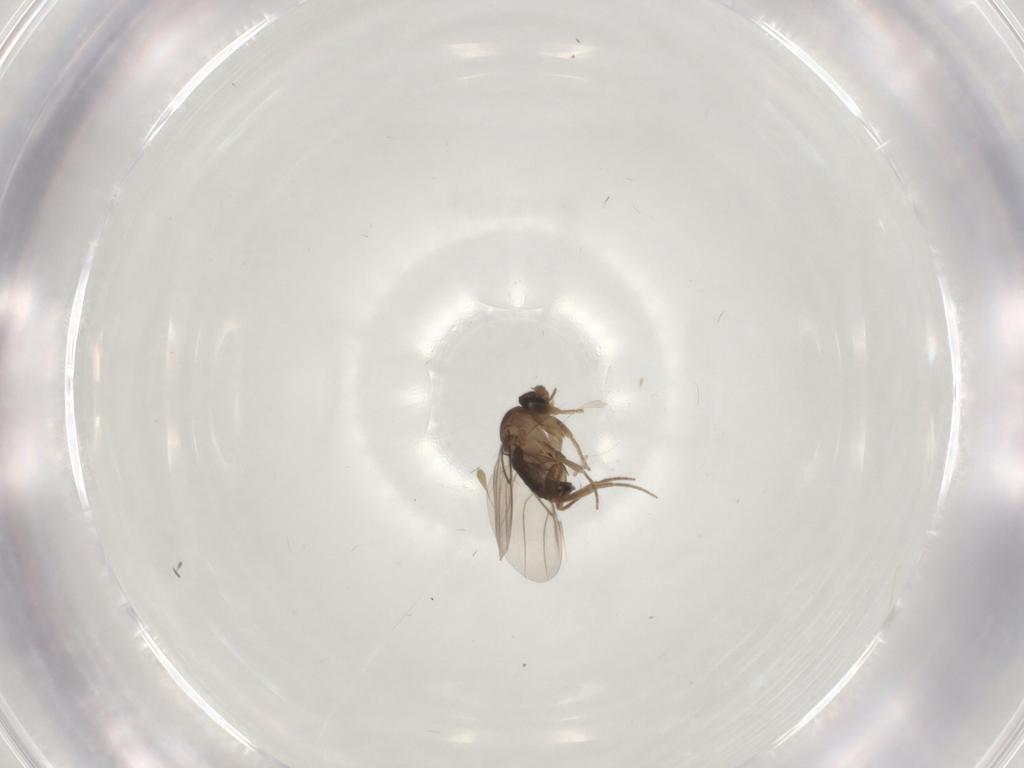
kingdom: Animalia
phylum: Arthropoda
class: Insecta
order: Diptera
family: Phoridae
